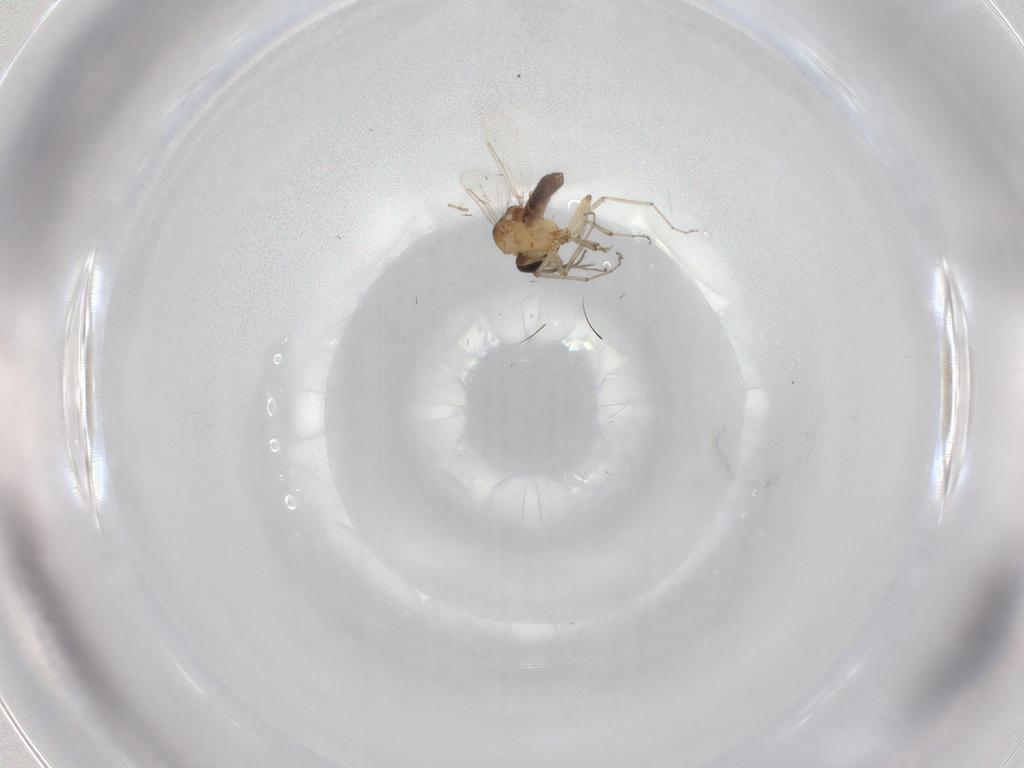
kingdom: Animalia
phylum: Arthropoda
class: Insecta
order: Diptera
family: Ceratopogonidae
